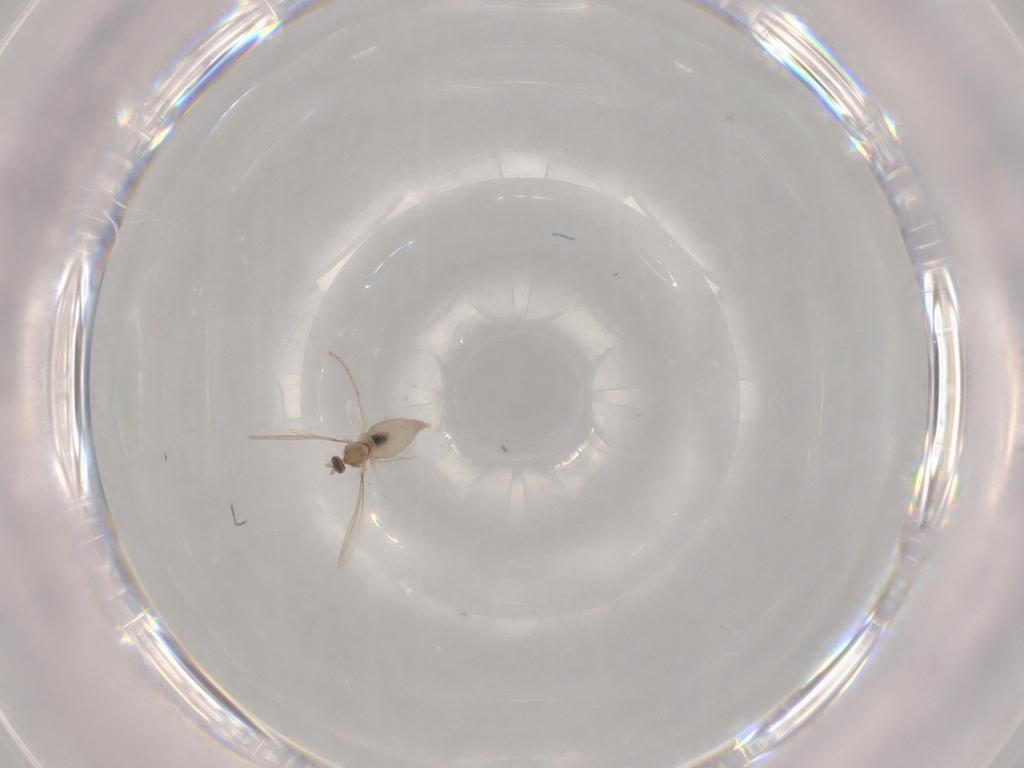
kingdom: Animalia
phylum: Arthropoda
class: Insecta
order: Diptera
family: Cecidomyiidae
